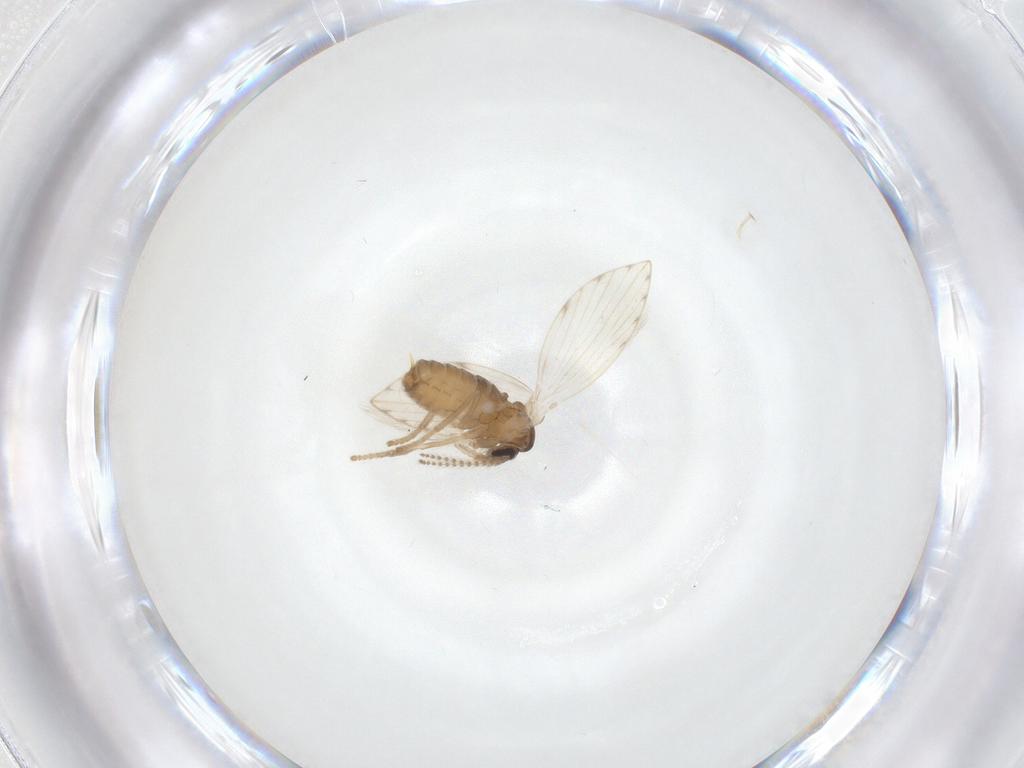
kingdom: Animalia
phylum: Arthropoda
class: Insecta
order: Diptera
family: Psychodidae
